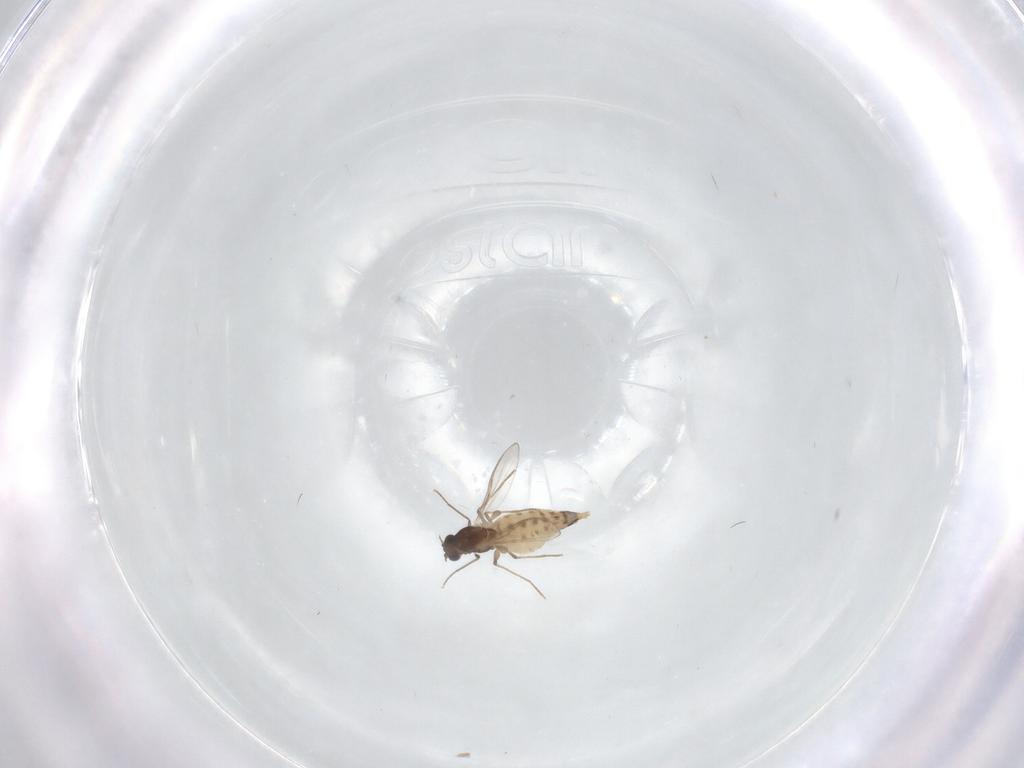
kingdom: Animalia
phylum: Arthropoda
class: Insecta
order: Diptera
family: Chironomidae
